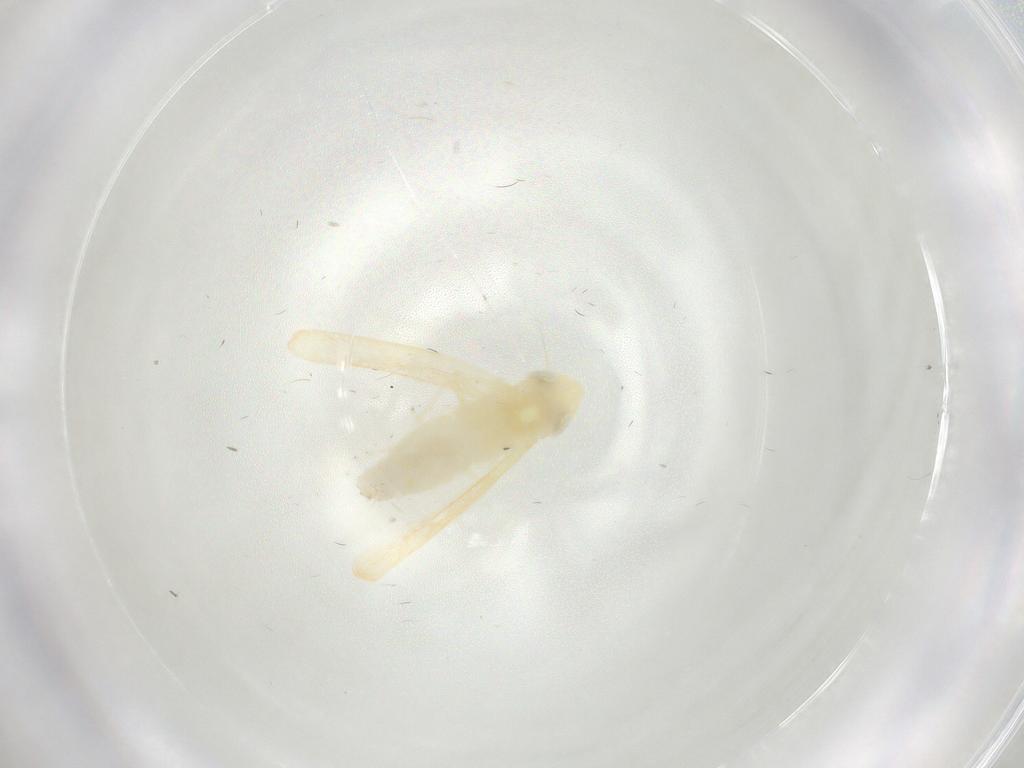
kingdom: Animalia
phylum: Arthropoda
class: Insecta
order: Hemiptera
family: Cicadellidae
